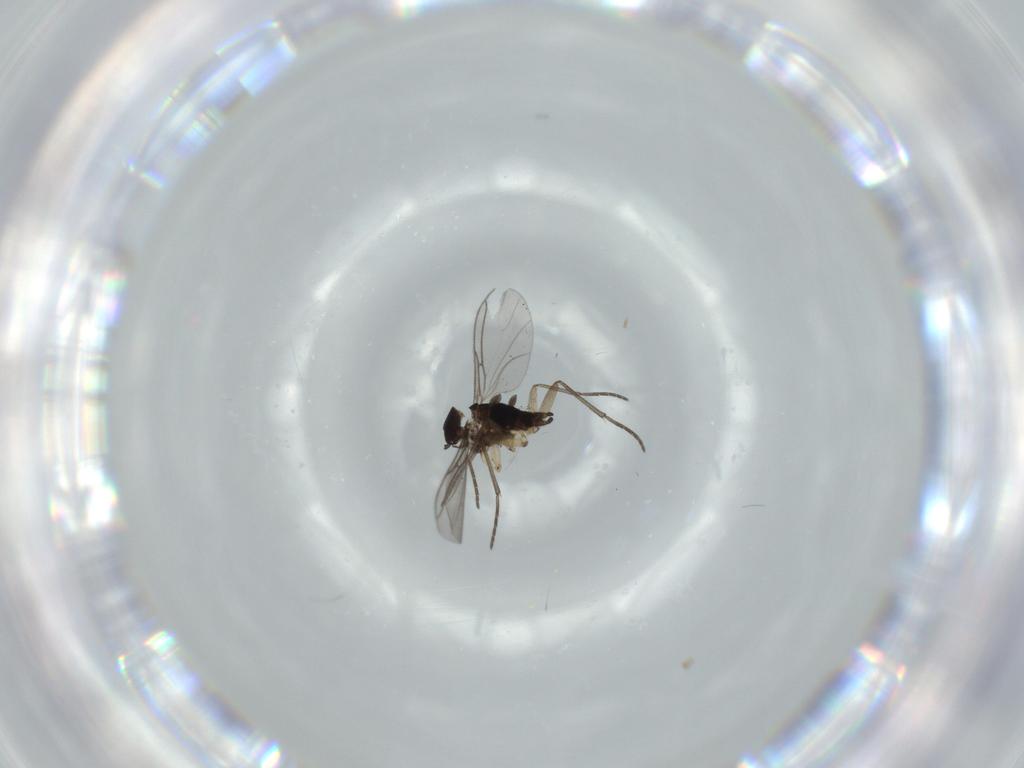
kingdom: Animalia
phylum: Arthropoda
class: Insecta
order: Diptera
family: Sciaridae
